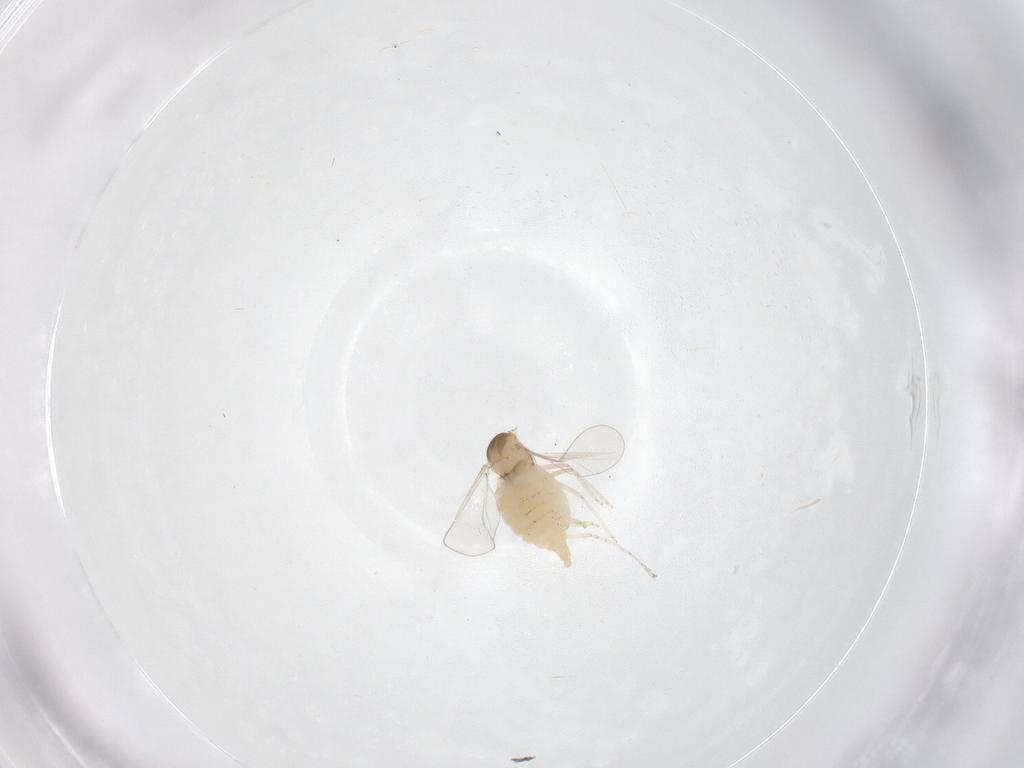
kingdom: Animalia
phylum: Arthropoda
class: Insecta
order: Diptera
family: Cecidomyiidae
